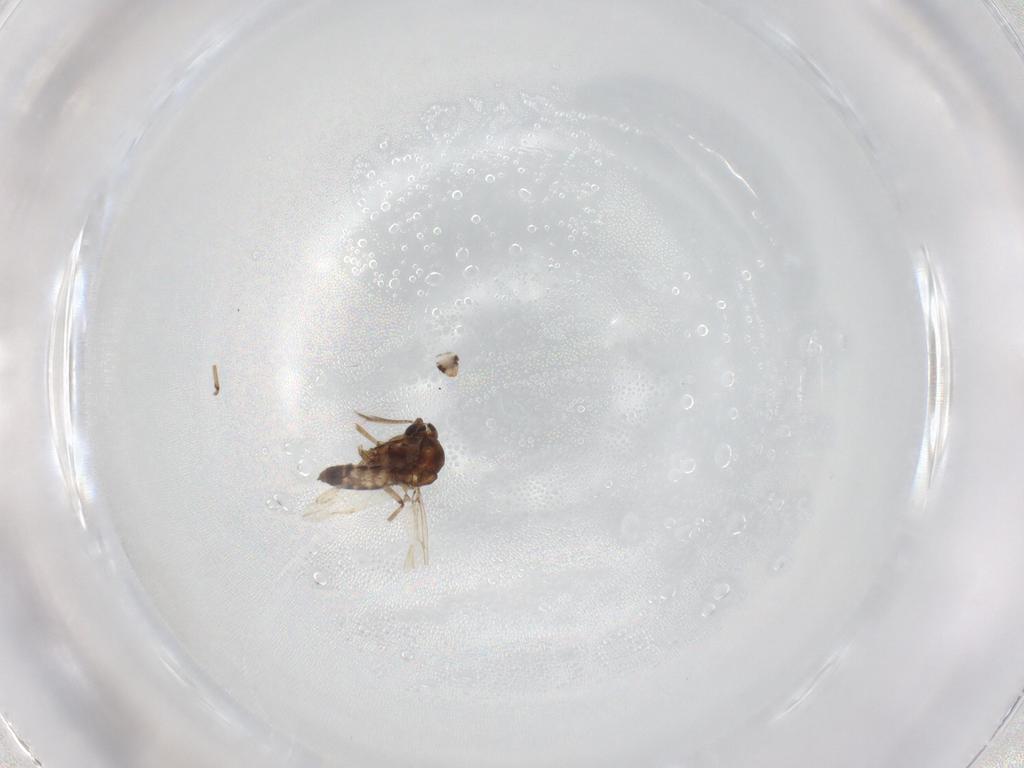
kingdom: Animalia
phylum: Arthropoda
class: Insecta
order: Diptera
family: Ceratopogonidae
